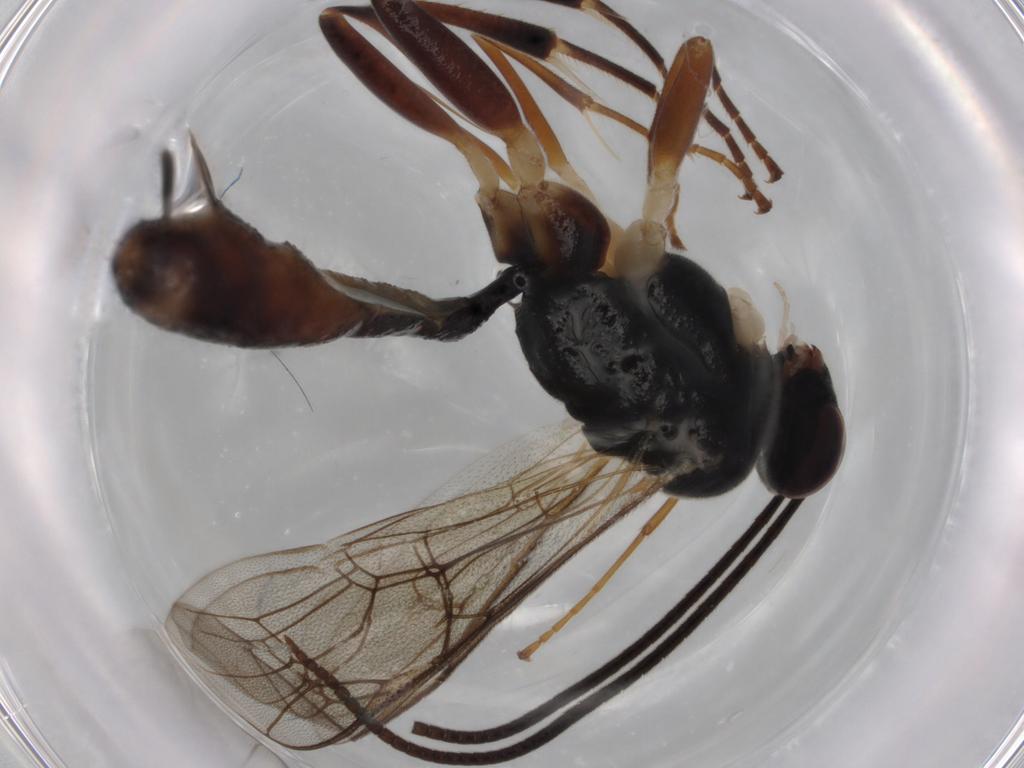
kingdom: Animalia
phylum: Arthropoda
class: Insecta
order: Hymenoptera
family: Ichneumonidae
